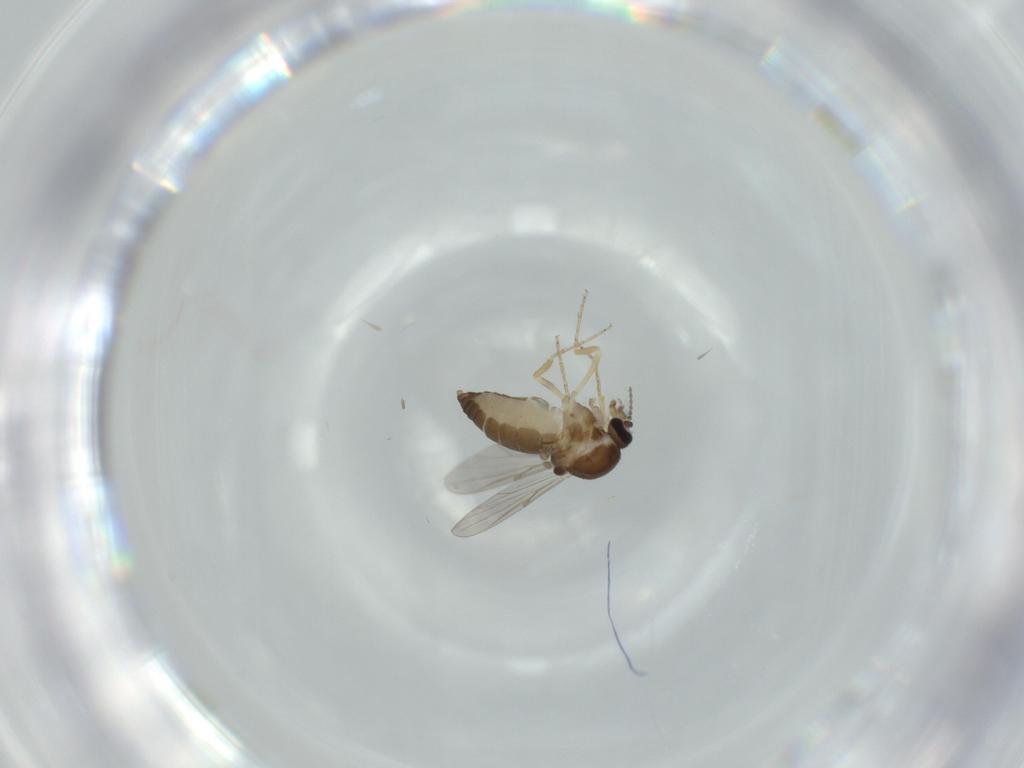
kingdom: Animalia
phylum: Arthropoda
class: Insecta
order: Diptera
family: Ceratopogonidae
